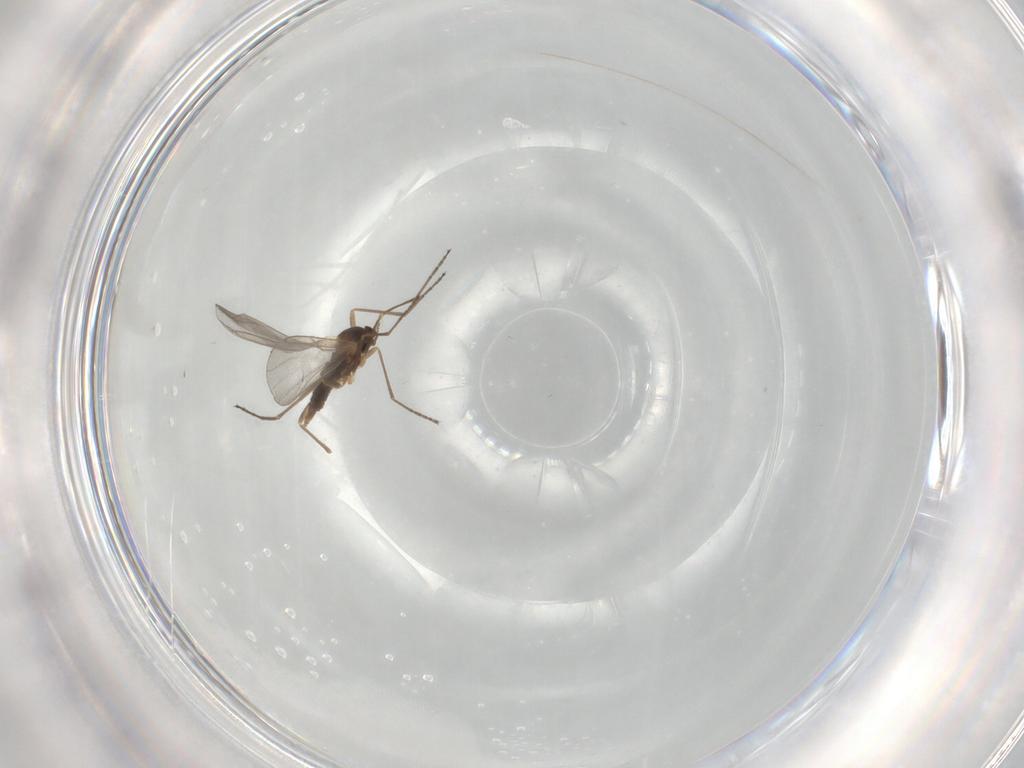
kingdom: Animalia
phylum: Arthropoda
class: Insecta
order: Diptera
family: Cecidomyiidae
